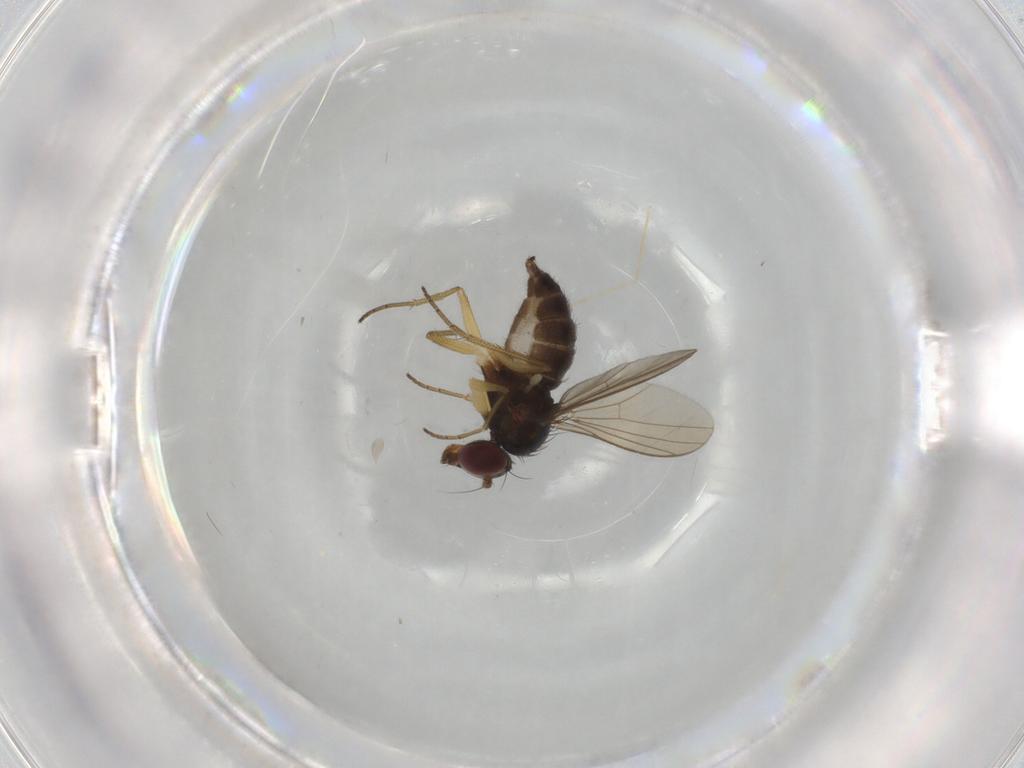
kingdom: Animalia
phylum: Arthropoda
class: Insecta
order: Diptera
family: Dolichopodidae
